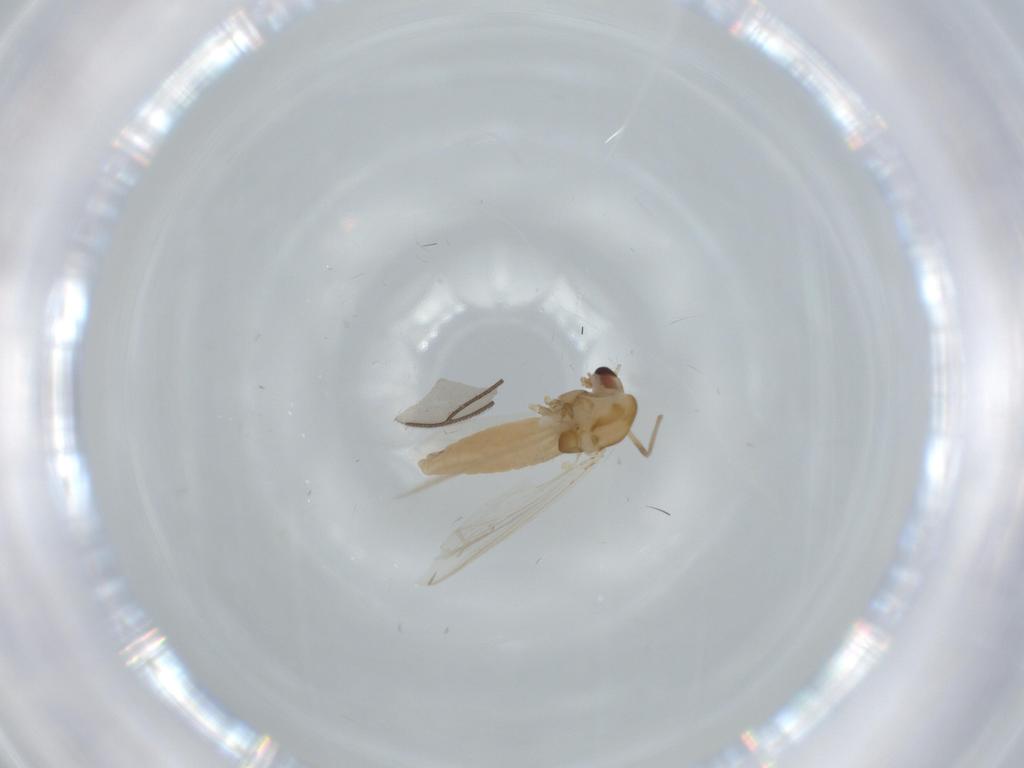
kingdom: Animalia
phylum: Arthropoda
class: Insecta
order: Diptera
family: Chironomidae
